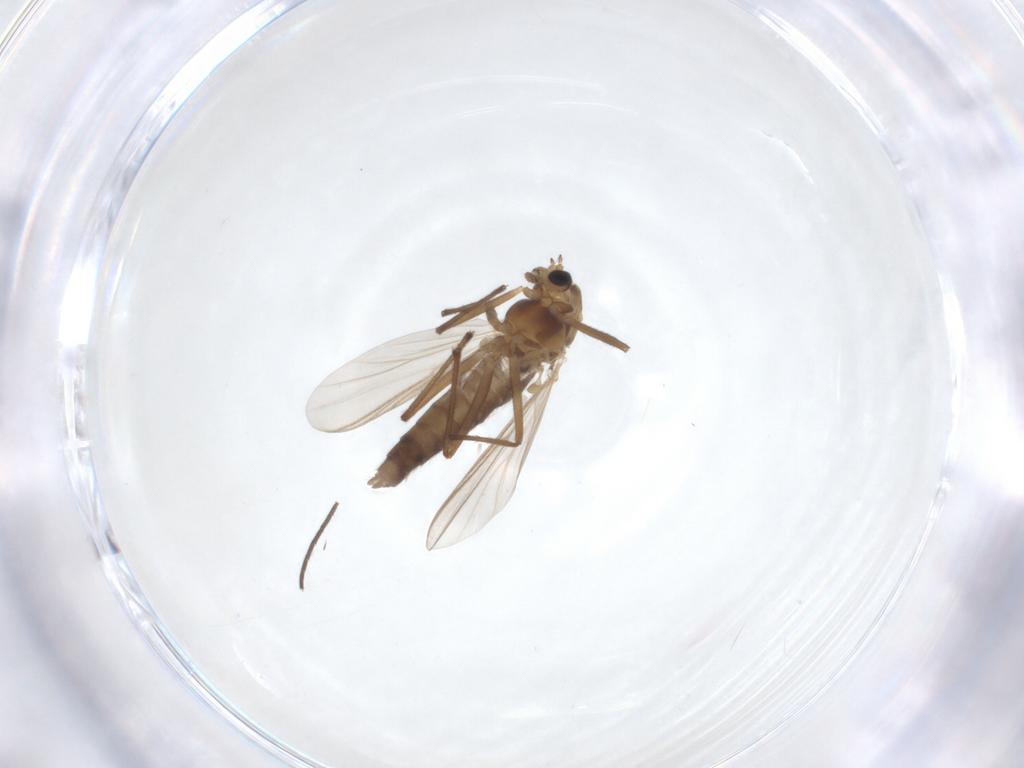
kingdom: Animalia
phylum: Arthropoda
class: Insecta
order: Diptera
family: Chironomidae
